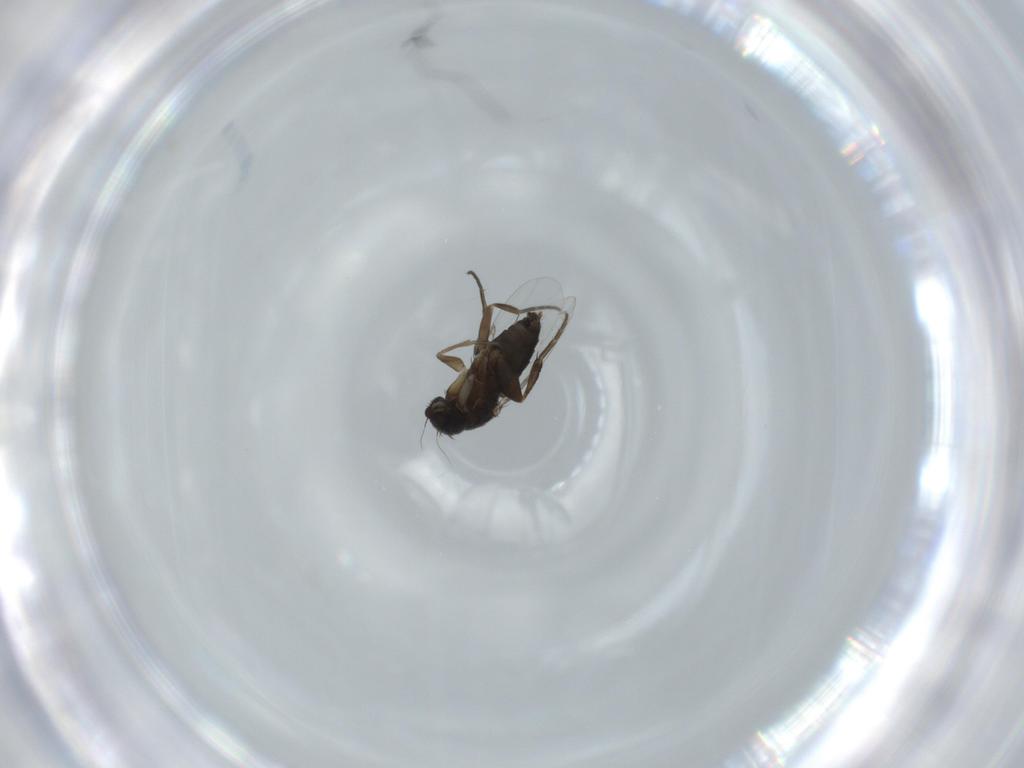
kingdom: Animalia
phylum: Arthropoda
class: Insecta
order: Diptera
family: Phoridae
